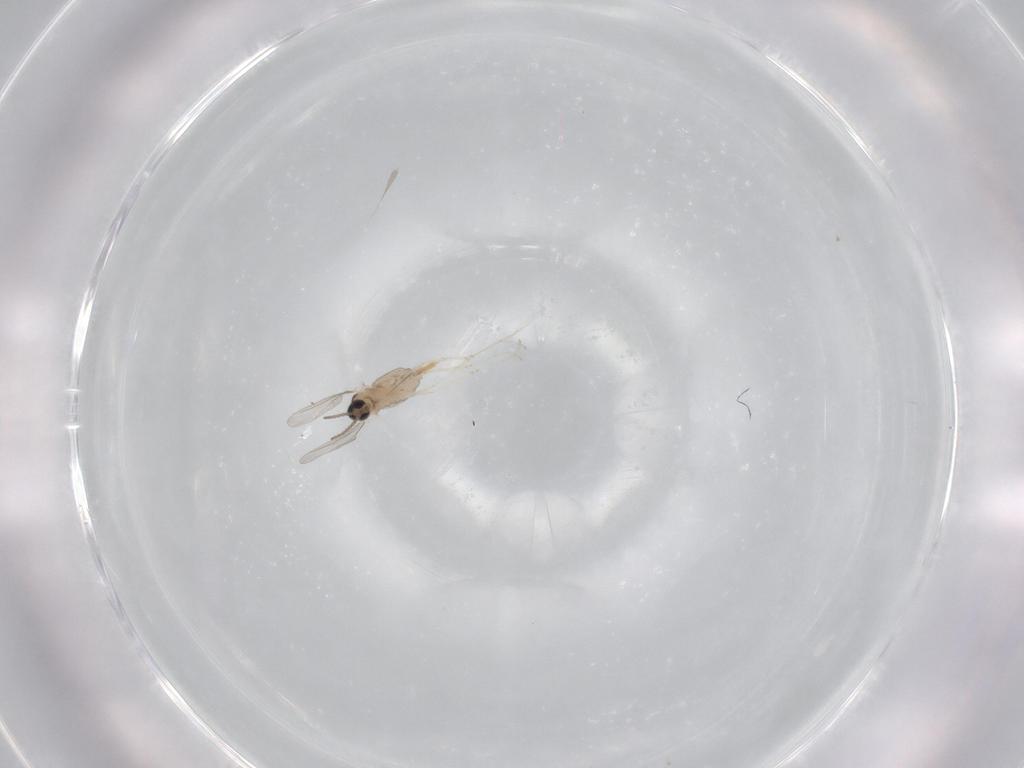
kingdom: Animalia
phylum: Arthropoda
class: Insecta
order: Diptera
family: Cecidomyiidae
